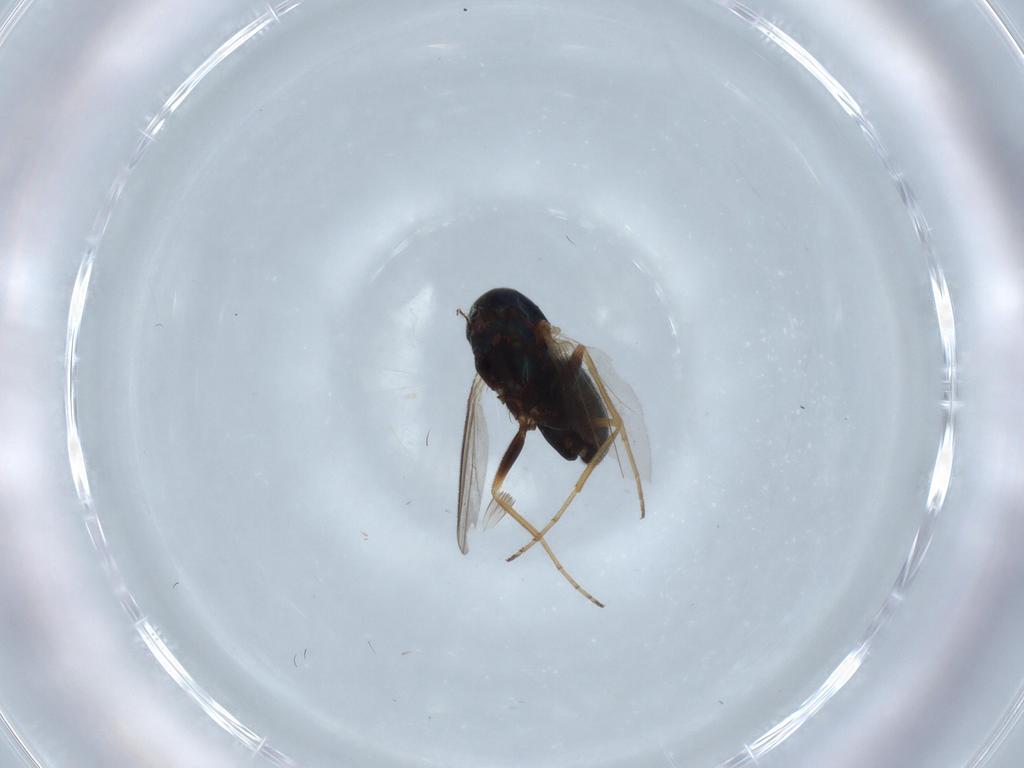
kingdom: Animalia
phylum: Arthropoda
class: Insecta
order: Diptera
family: Dolichopodidae
